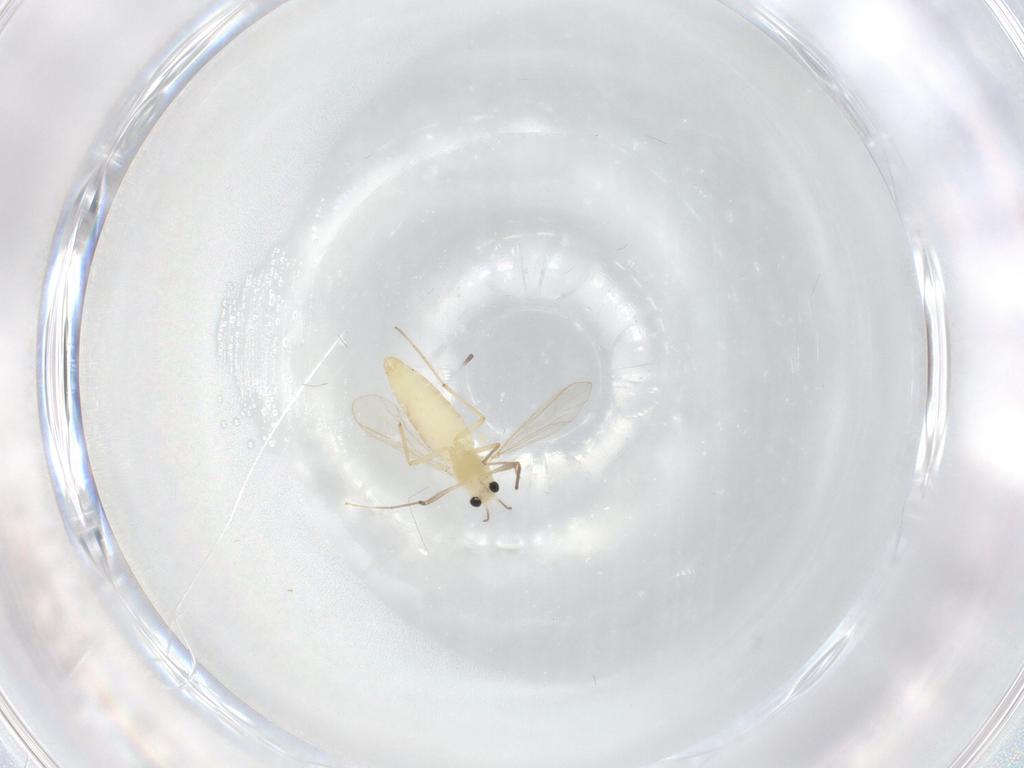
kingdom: Animalia
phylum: Arthropoda
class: Insecta
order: Diptera
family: Chironomidae
